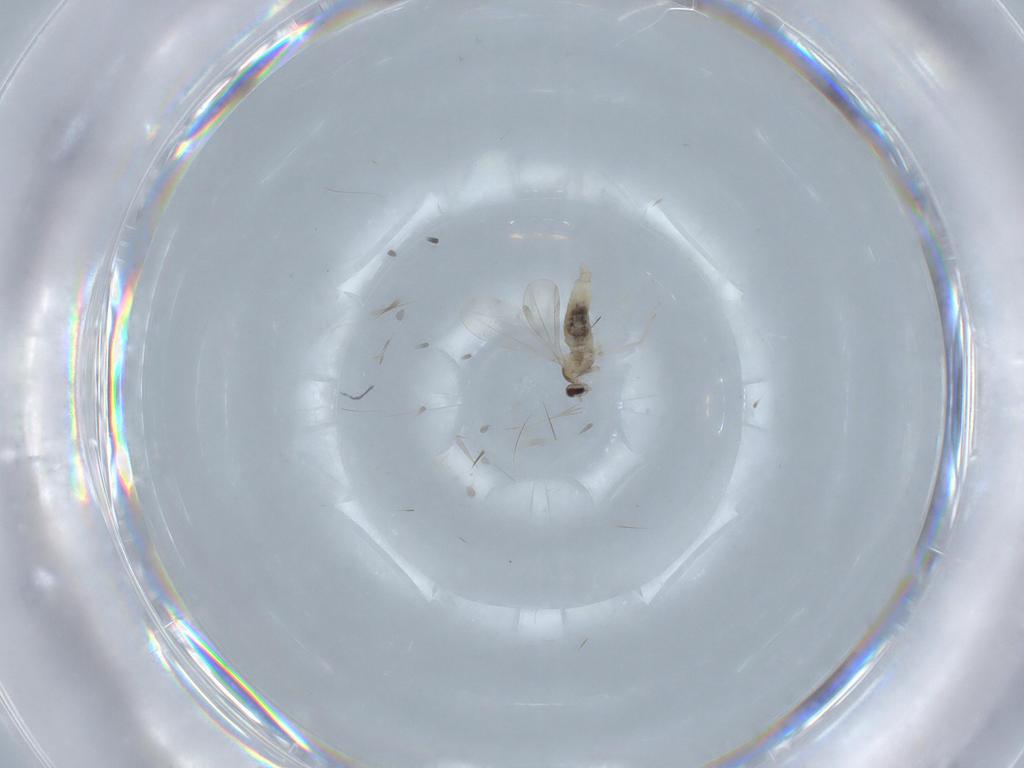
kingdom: Animalia
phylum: Arthropoda
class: Insecta
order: Diptera
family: Cecidomyiidae
